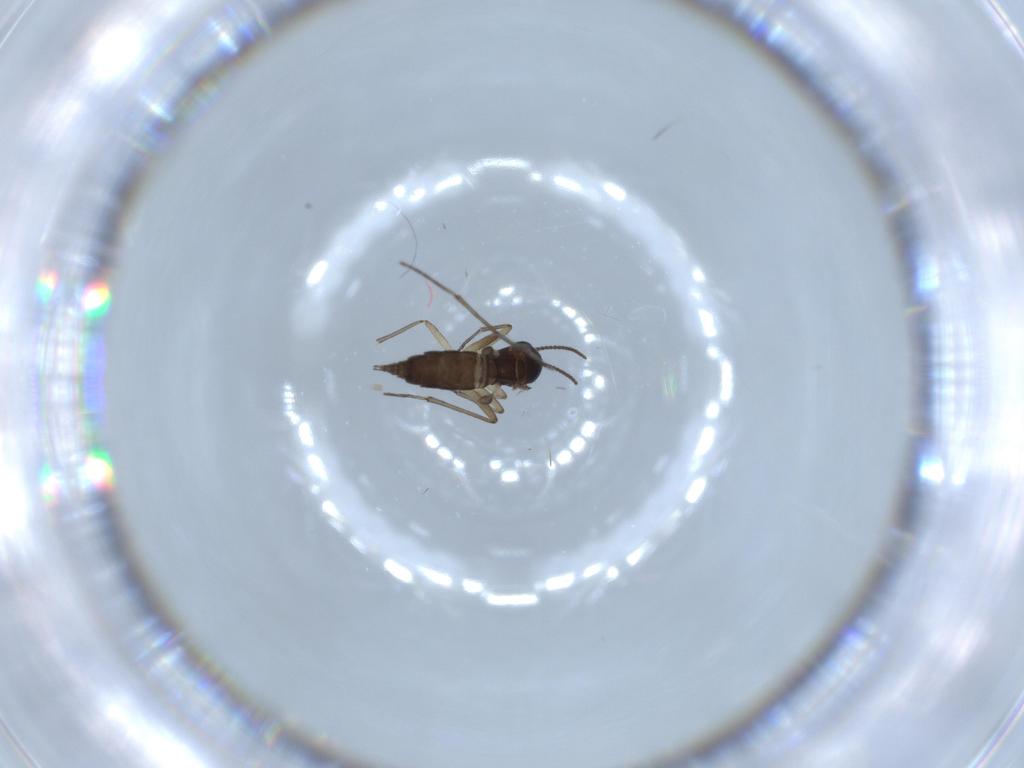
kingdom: Animalia
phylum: Arthropoda
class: Insecta
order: Diptera
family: Sciaridae
